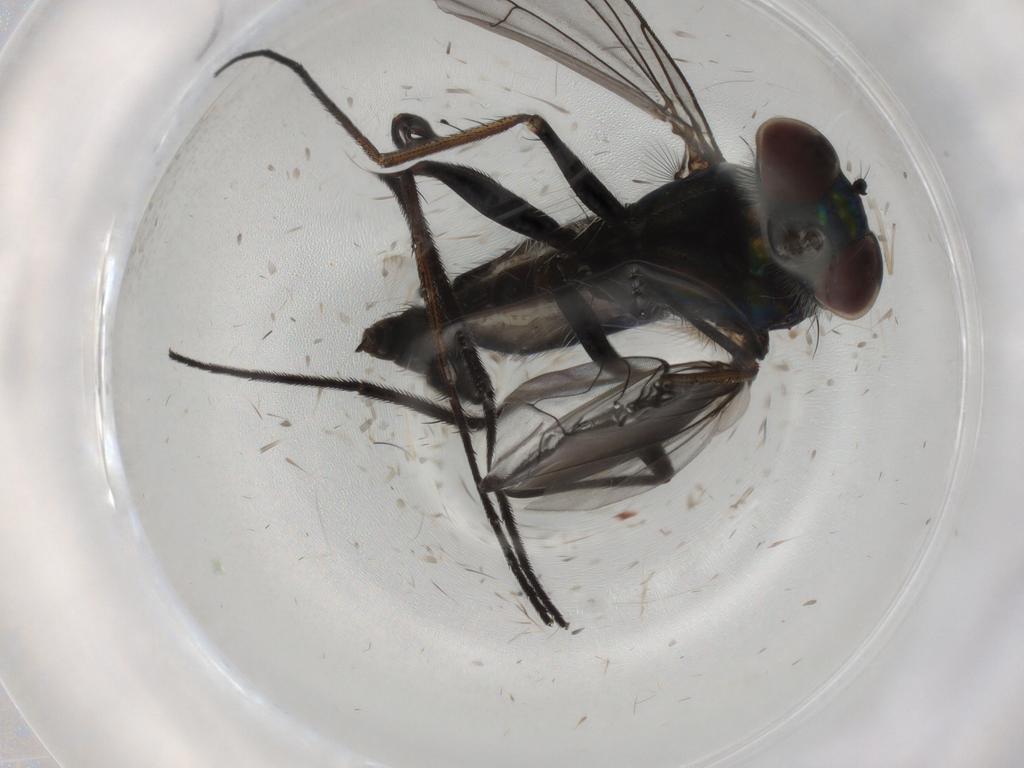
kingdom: Animalia
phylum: Arthropoda
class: Insecta
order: Diptera
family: Dolichopodidae
